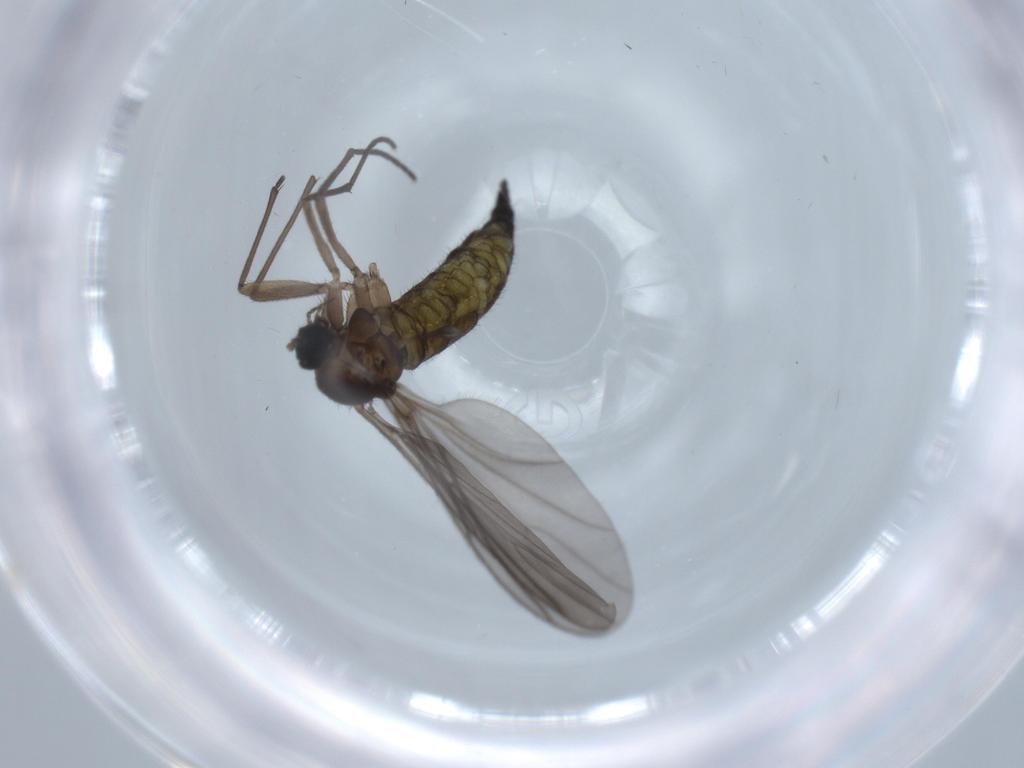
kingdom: Animalia
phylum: Arthropoda
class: Insecta
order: Diptera
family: Sciaridae
